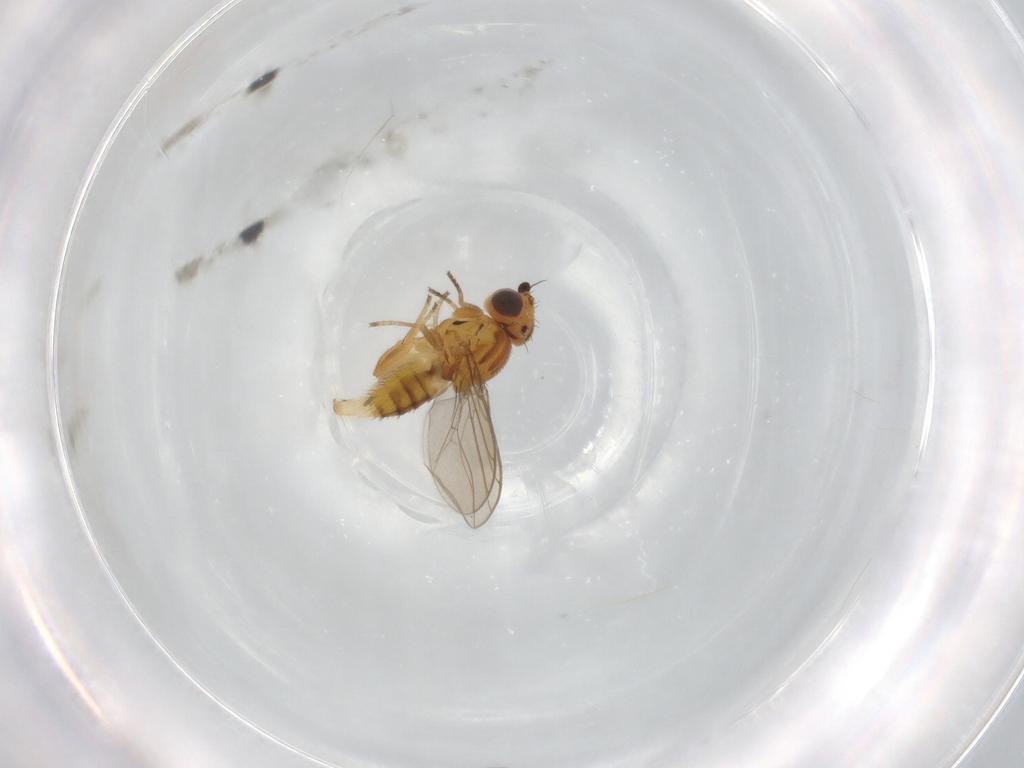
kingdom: Animalia
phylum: Arthropoda
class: Insecta
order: Diptera
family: Chloropidae
